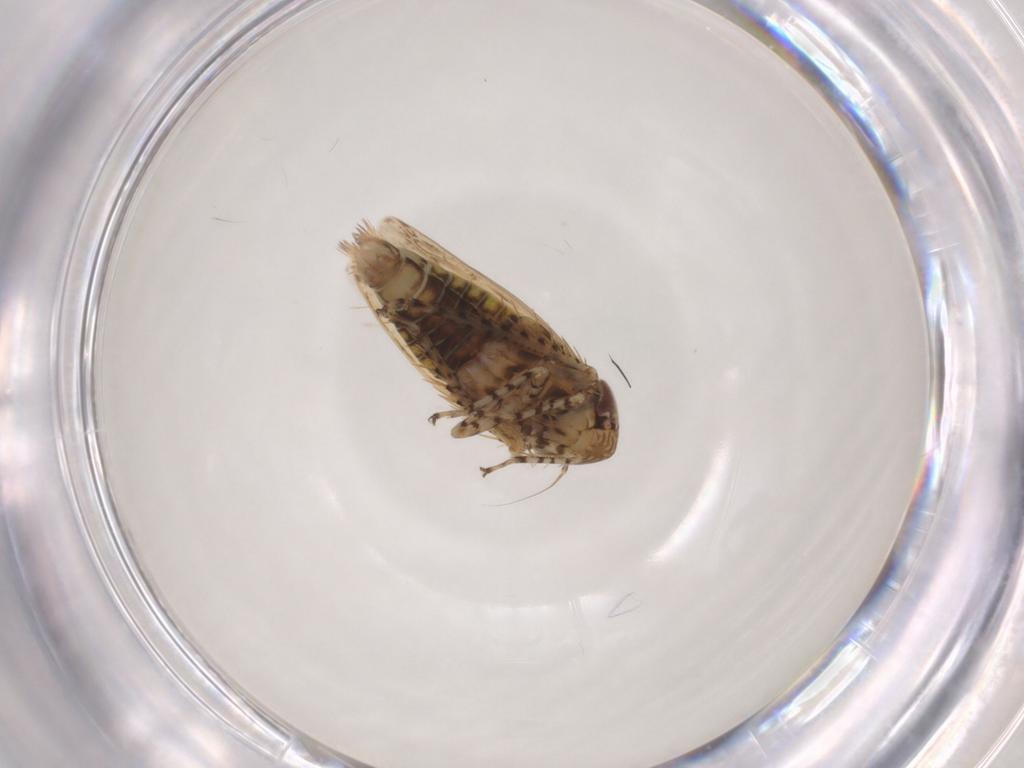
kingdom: Animalia
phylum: Arthropoda
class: Insecta
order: Hemiptera
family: Cicadellidae
